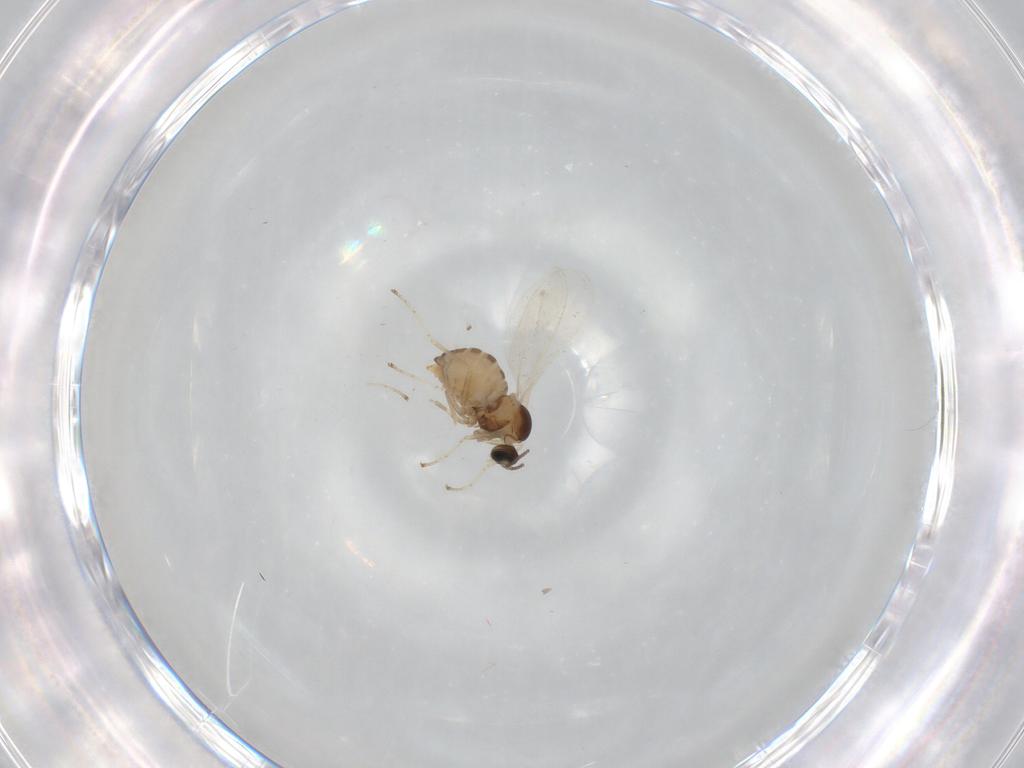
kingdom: Animalia
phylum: Arthropoda
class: Insecta
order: Diptera
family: Cecidomyiidae
